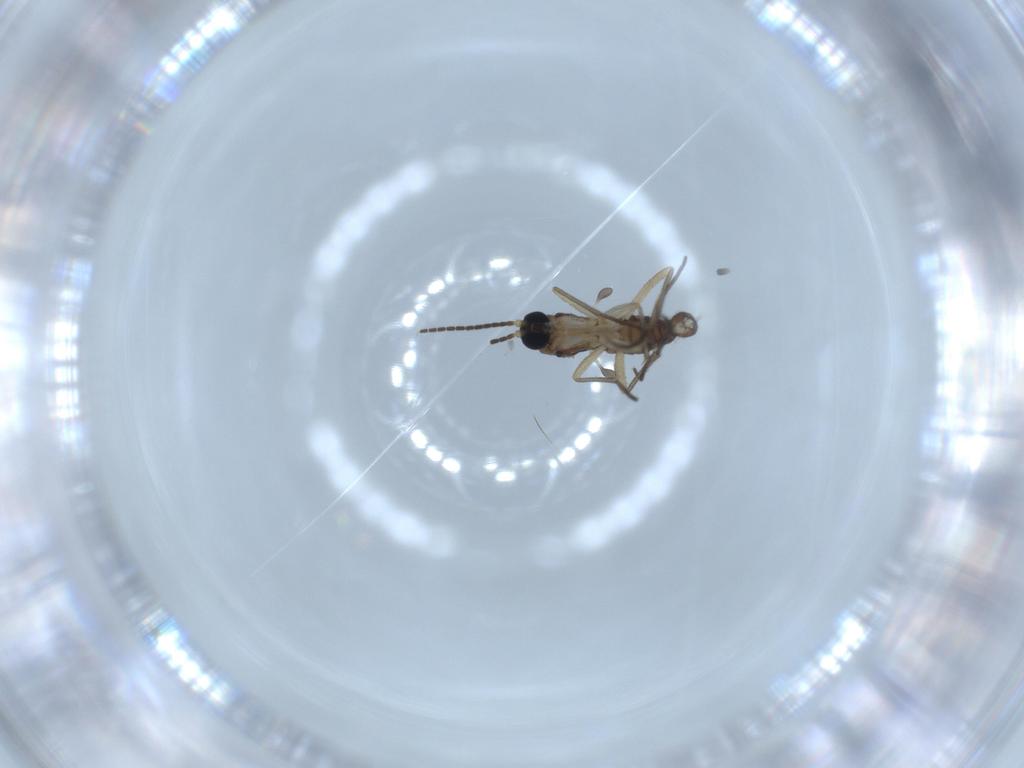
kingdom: Animalia
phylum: Arthropoda
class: Insecta
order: Diptera
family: Sciaridae
